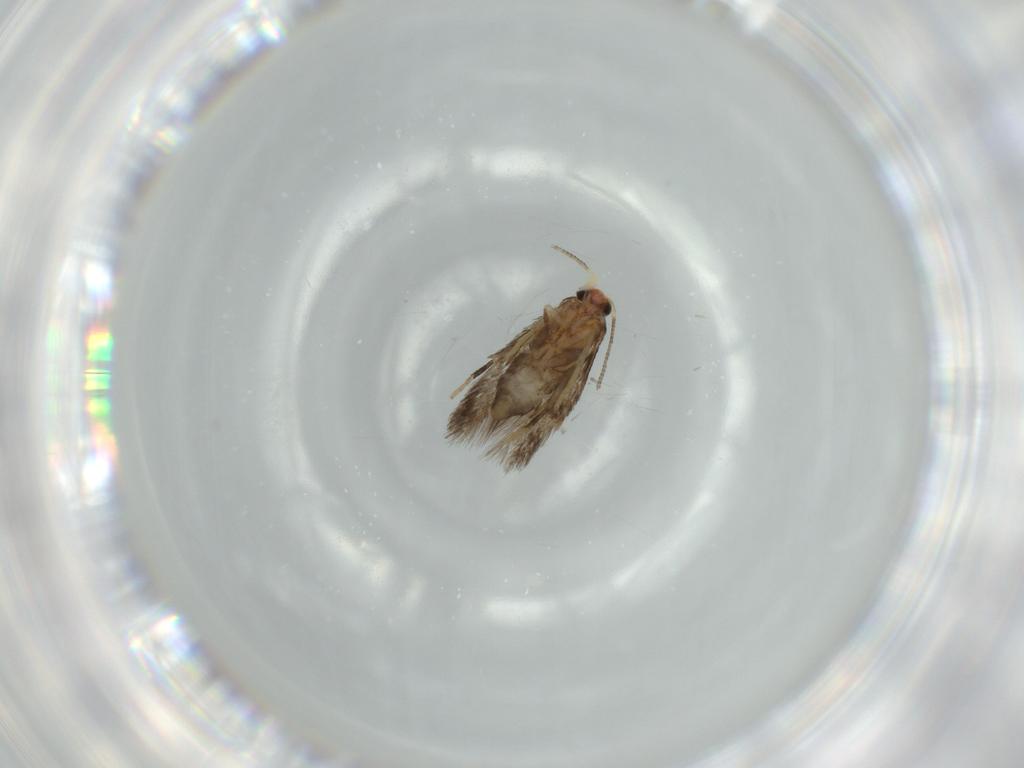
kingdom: Animalia
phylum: Arthropoda
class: Insecta
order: Lepidoptera
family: Nepticulidae
